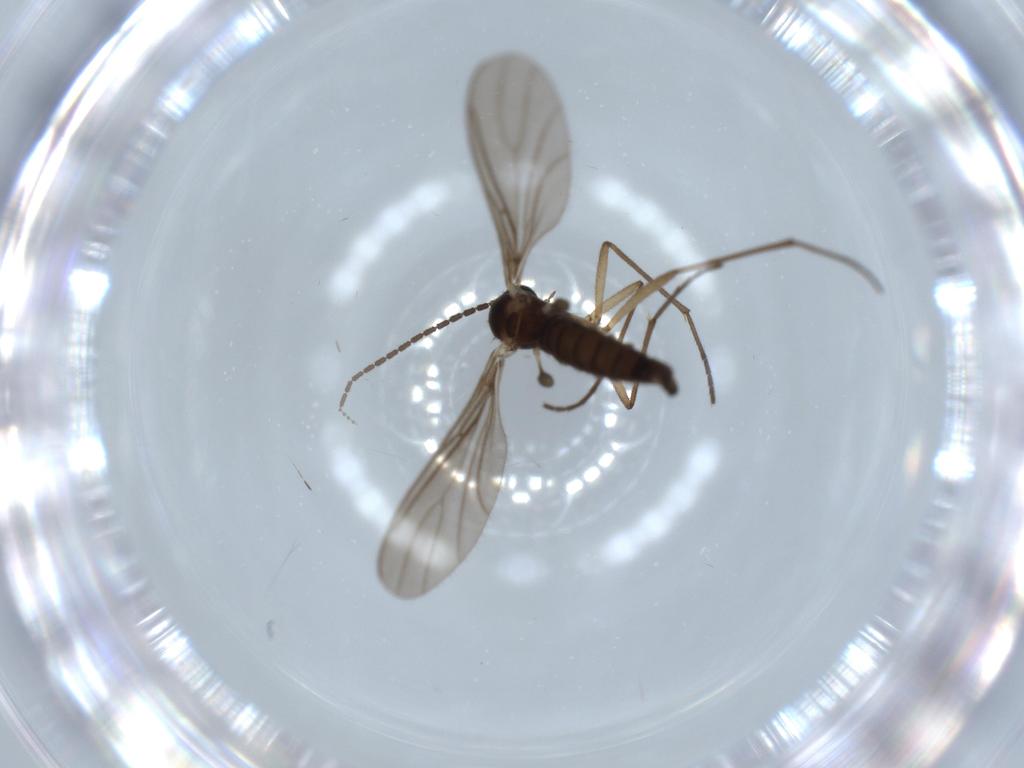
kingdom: Animalia
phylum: Arthropoda
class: Insecta
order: Diptera
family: Sciaridae
